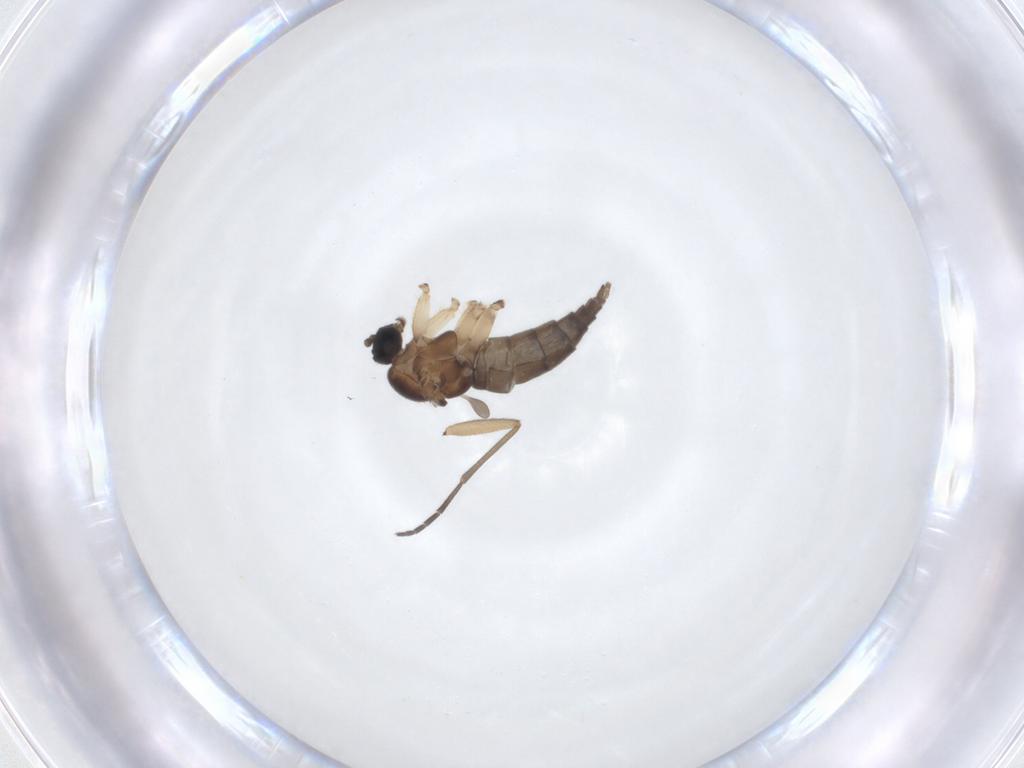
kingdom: Animalia
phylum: Arthropoda
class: Insecta
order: Diptera
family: Sciaridae
